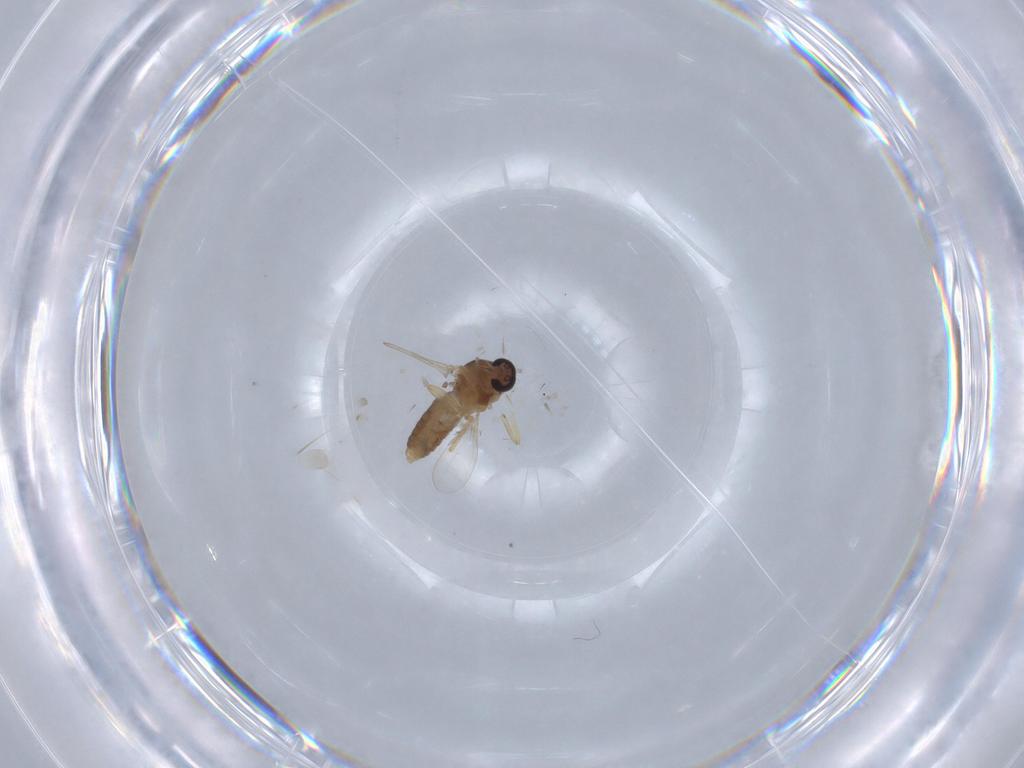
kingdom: Animalia
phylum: Arthropoda
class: Insecta
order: Diptera
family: Ceratopogonidae
